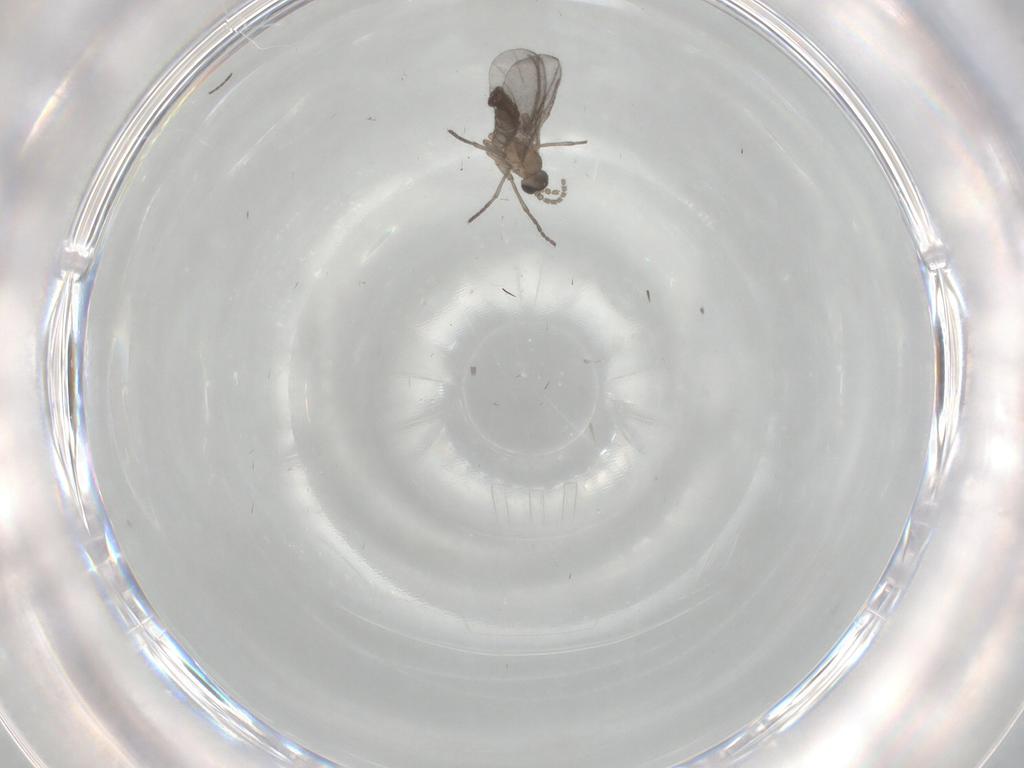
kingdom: Animalia
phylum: Arthropoda
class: Insecta
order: Diptera
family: Sciaridae
